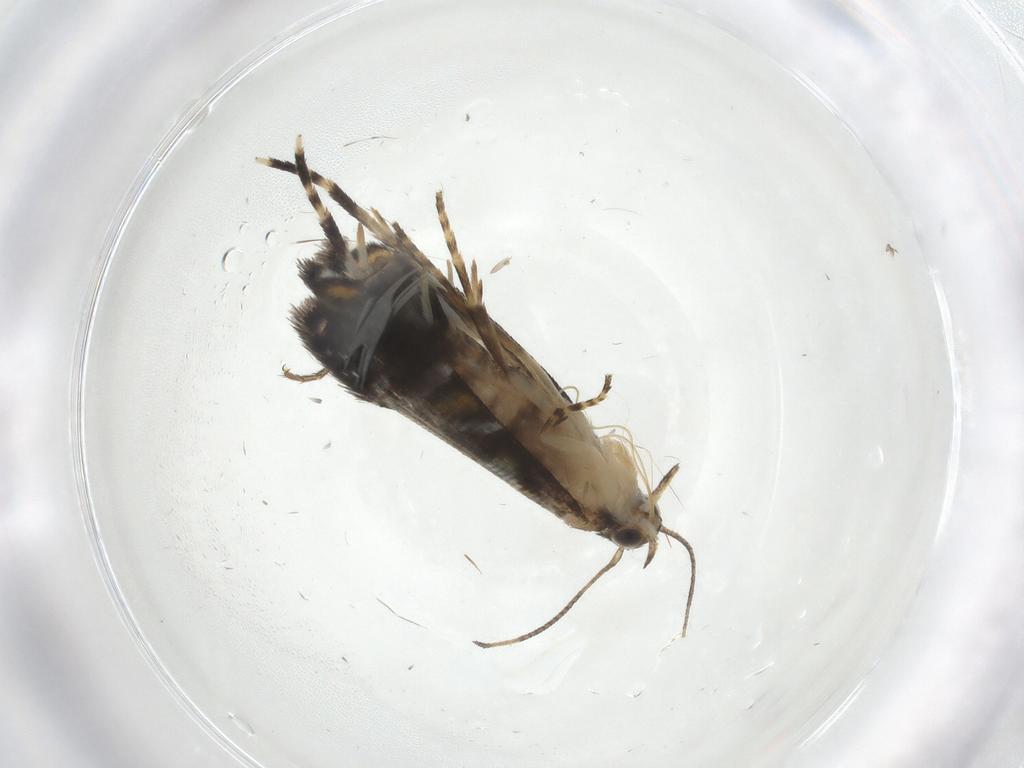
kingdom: Animalia
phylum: Arthropoda
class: Insecta
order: Lepidoptera
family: Glyphipterigidae
